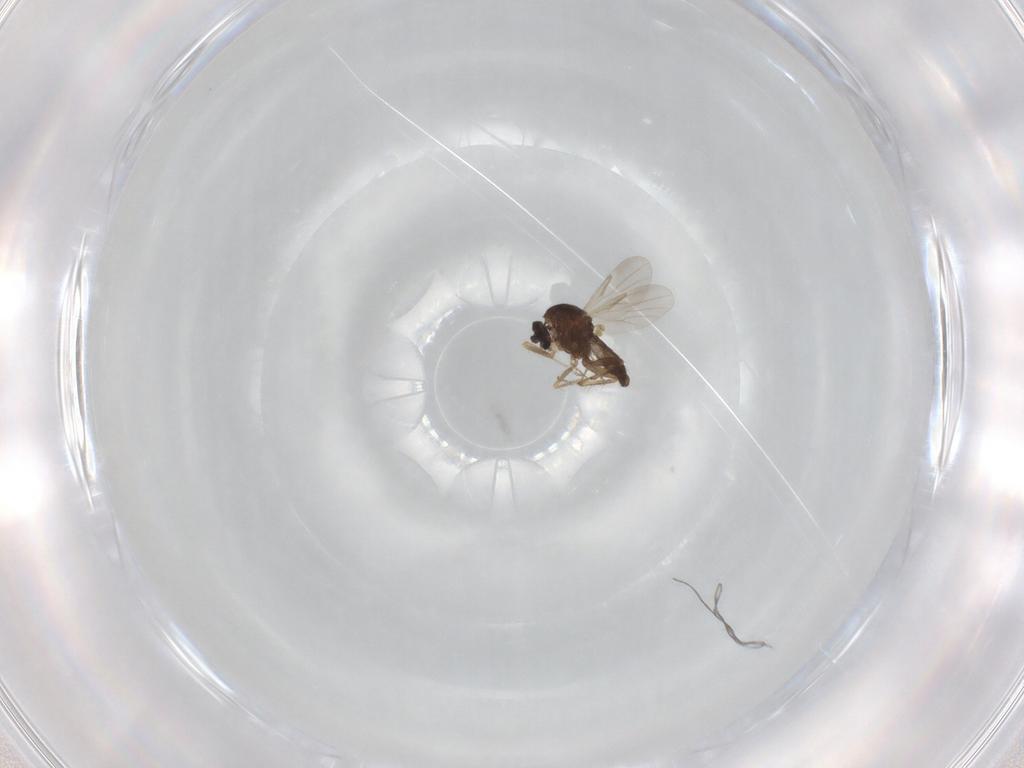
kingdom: Animalia
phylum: Arthropoda
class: Insecta
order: Diptera
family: Ceratopogonidae
